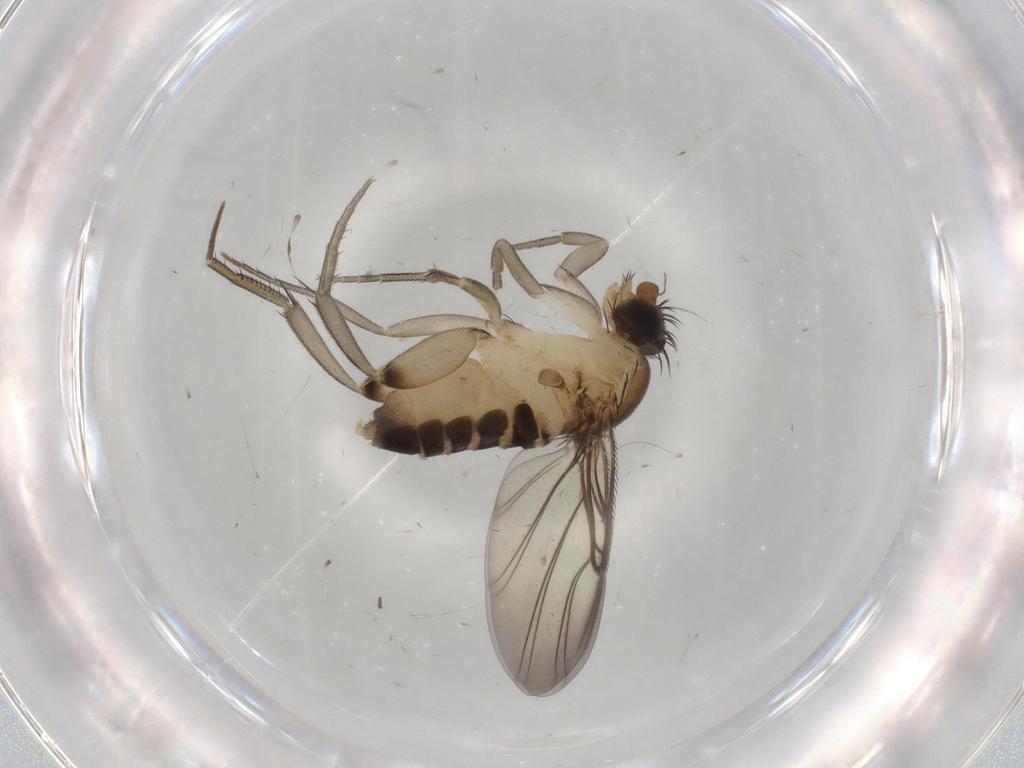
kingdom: Animalia
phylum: Arthropoda
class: Insecta
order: Diptera
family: Phoridae
